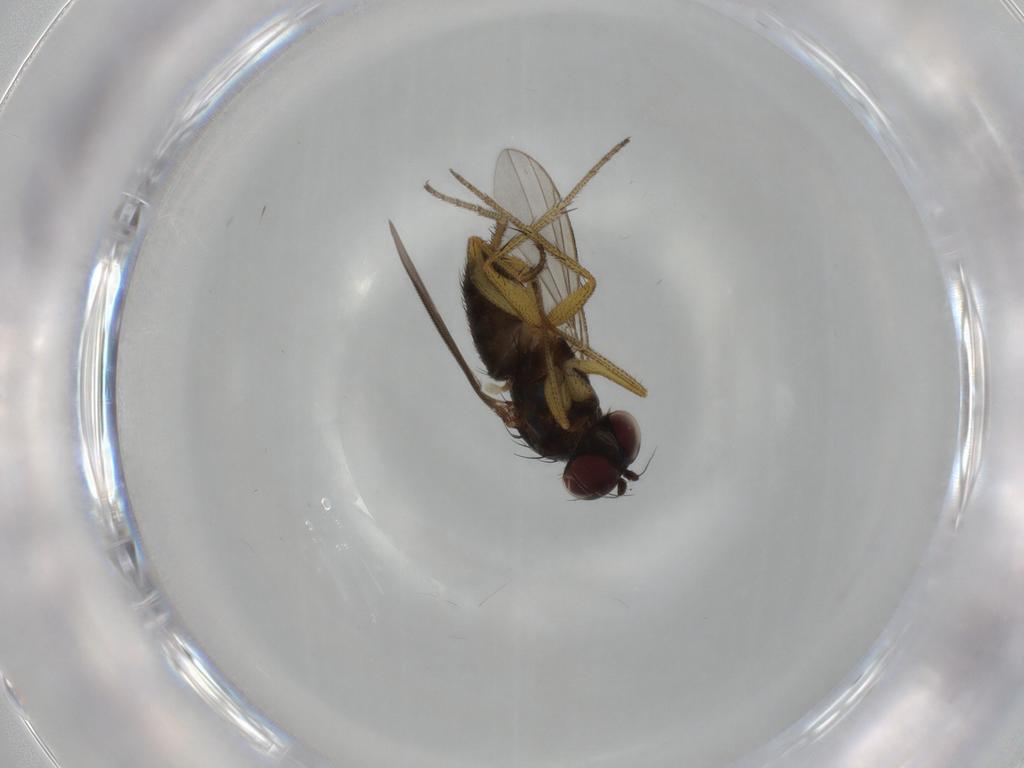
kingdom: Animalia
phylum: Arthropoda
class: Insecta
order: Diptera
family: Sciaridae
